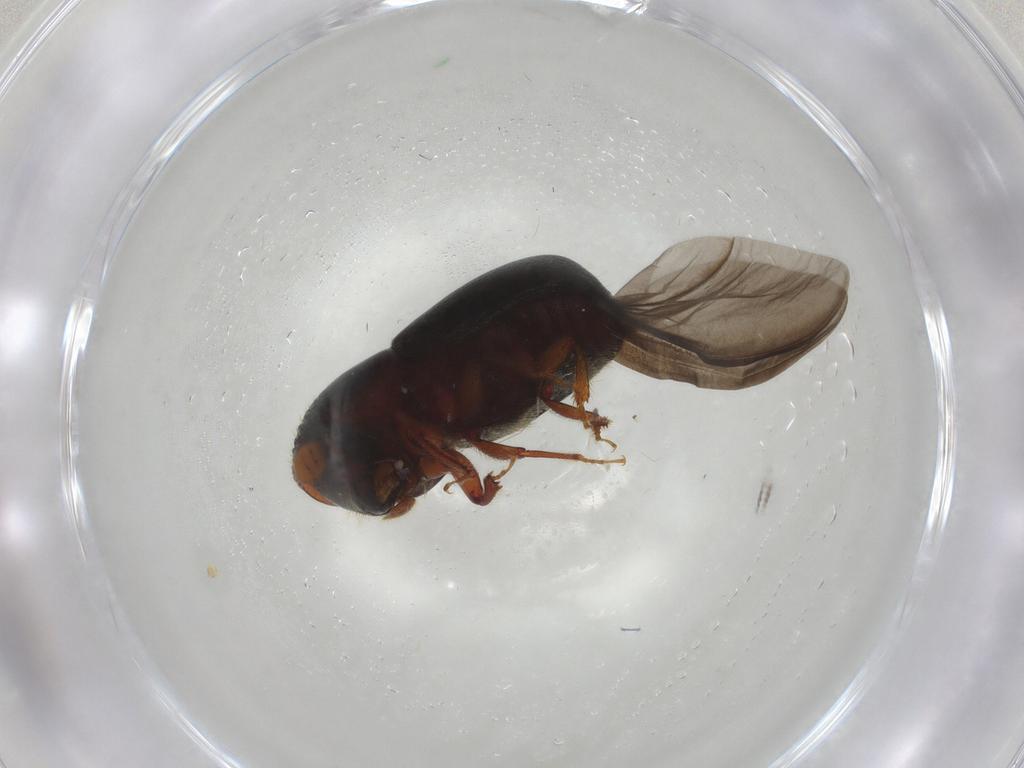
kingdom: Animalia
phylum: Arthropoda
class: Insecta
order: Coleoptera
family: Curculionidae
